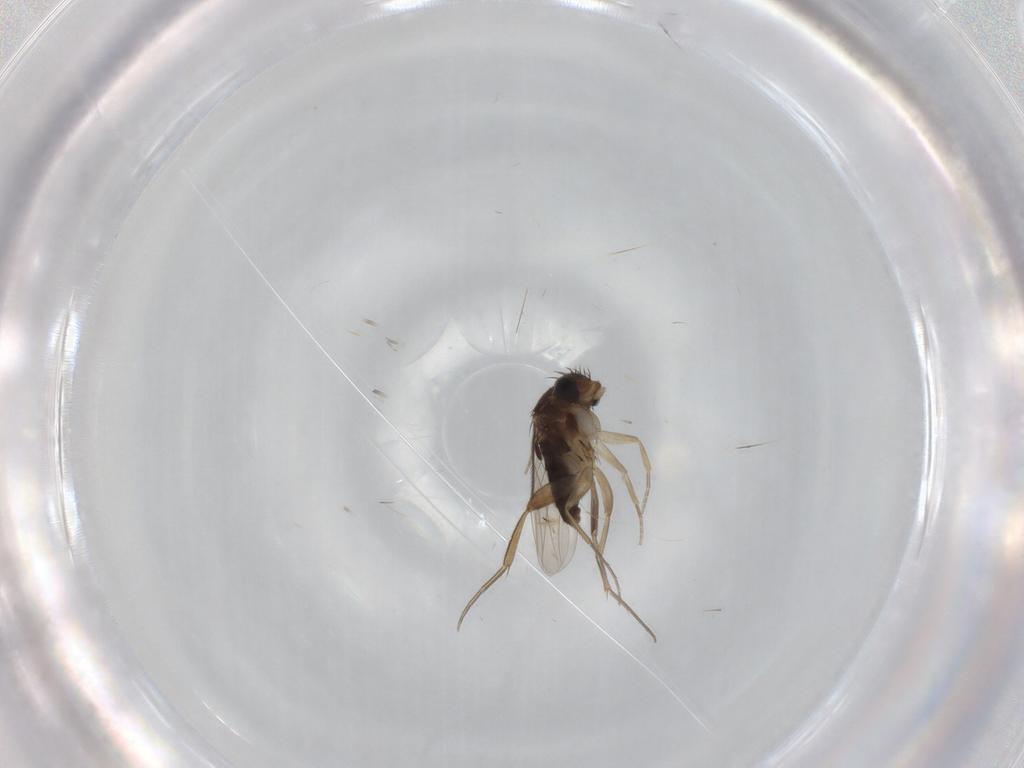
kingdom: Animalia
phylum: Arthropoda
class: Insecta
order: Diptera
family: Phoridae
